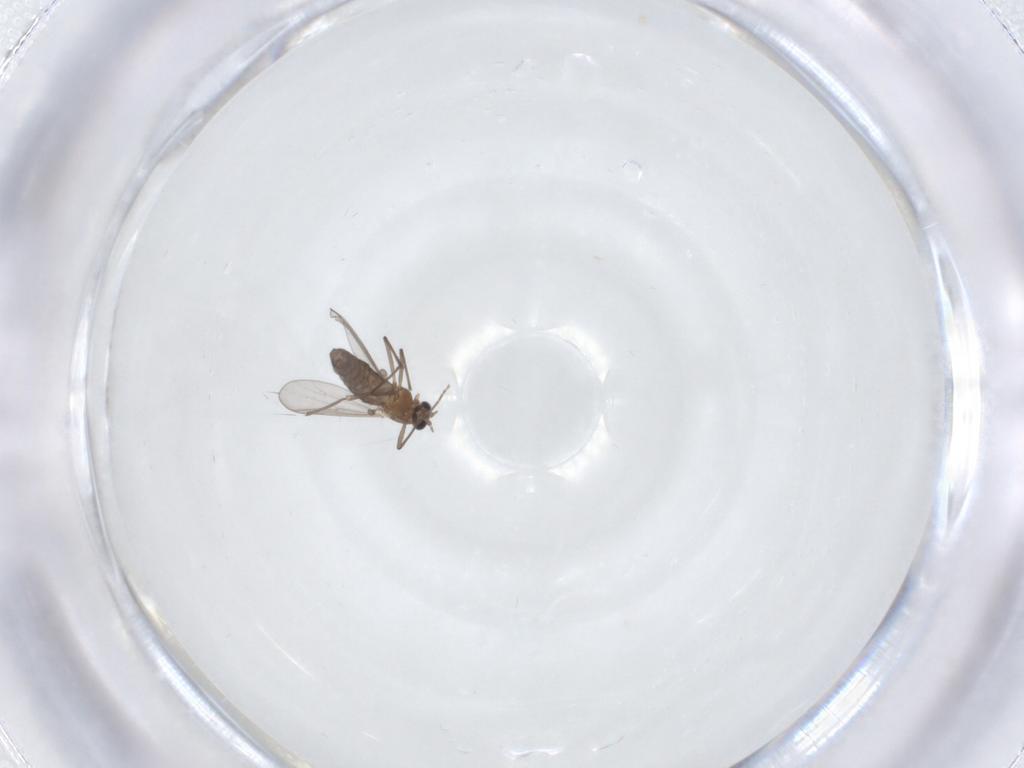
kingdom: Animalia
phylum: Arthropoda
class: Insecta
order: Diptera
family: Chironomidae
